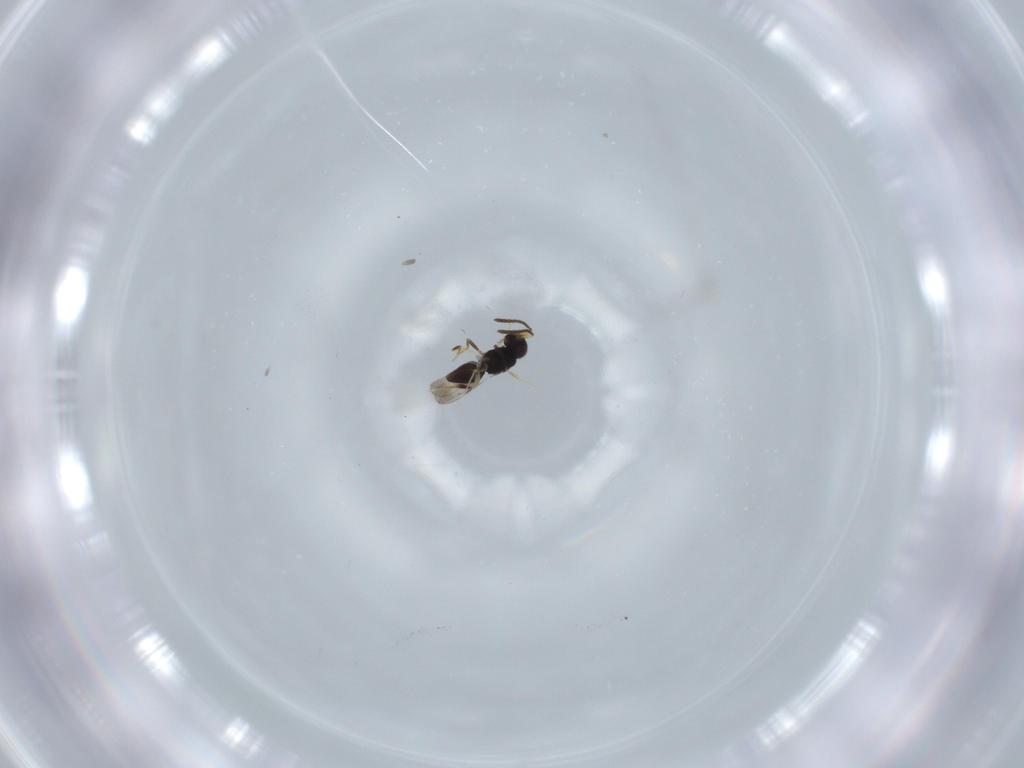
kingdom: Animalia
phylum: Arthropoda
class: Insecta
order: Hymenoptera
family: Ceraphronidae
